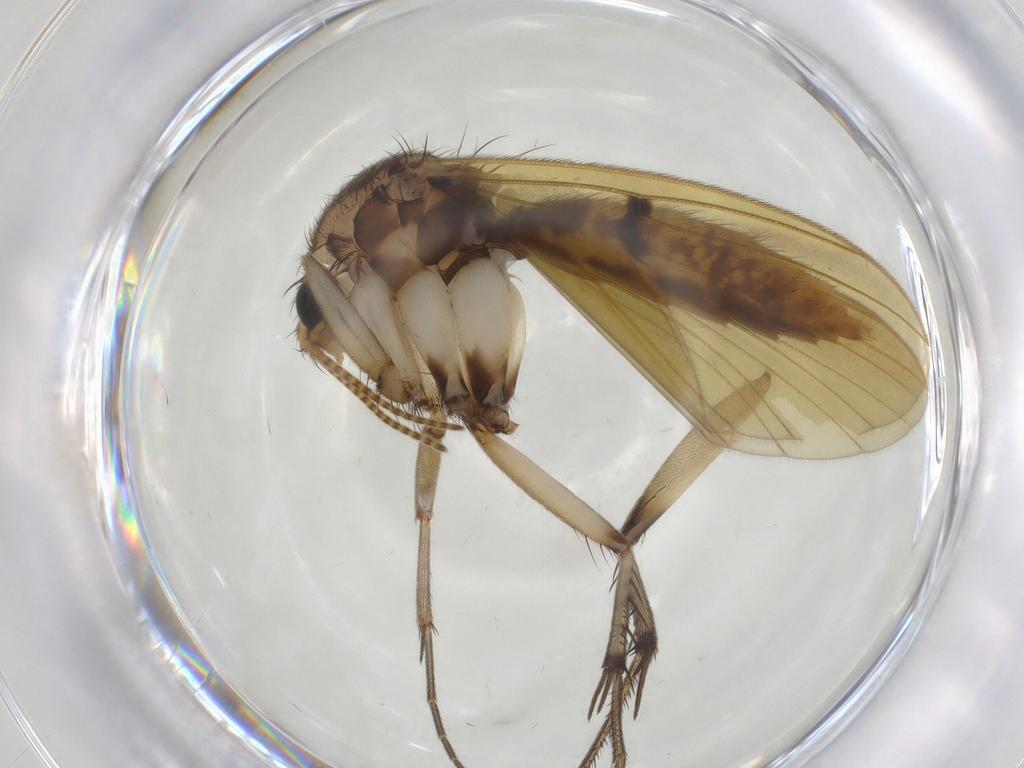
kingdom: Animalia
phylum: Arthropoda
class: Insecta
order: Diptera
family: Mycetophilidae
